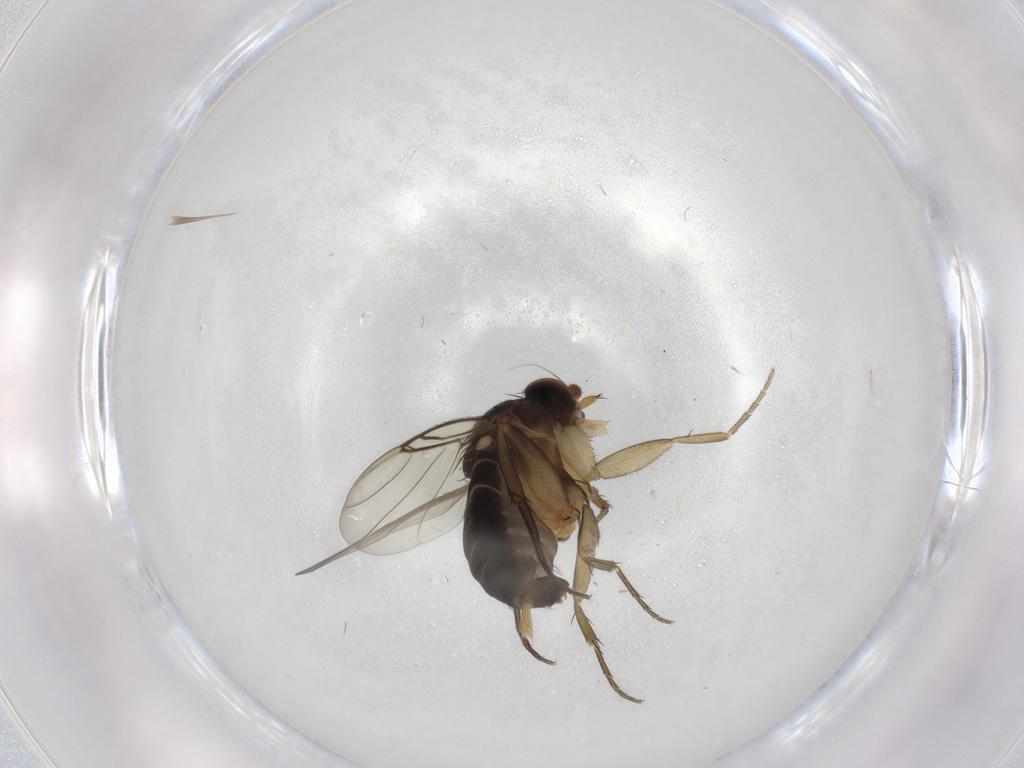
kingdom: Animalia
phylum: Arthropoda
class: Insecta
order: Diptera
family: Phoridae
